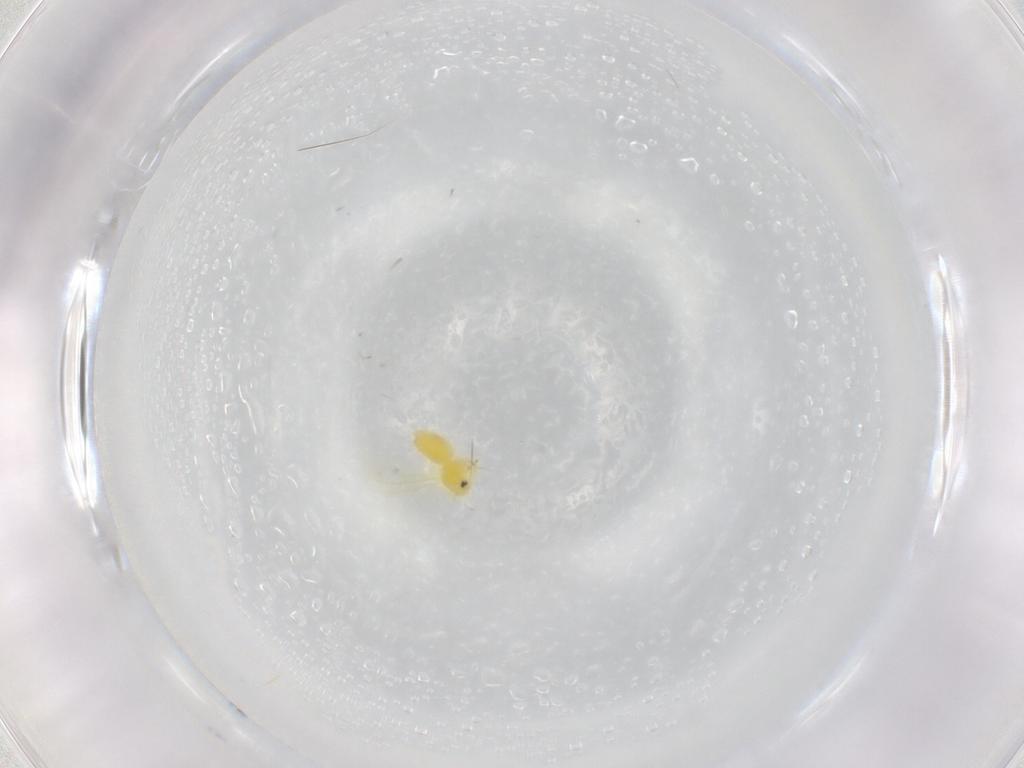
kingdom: Animalia
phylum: Arthropoda
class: Insecta
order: Hemiptera
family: Aleyrodidae
